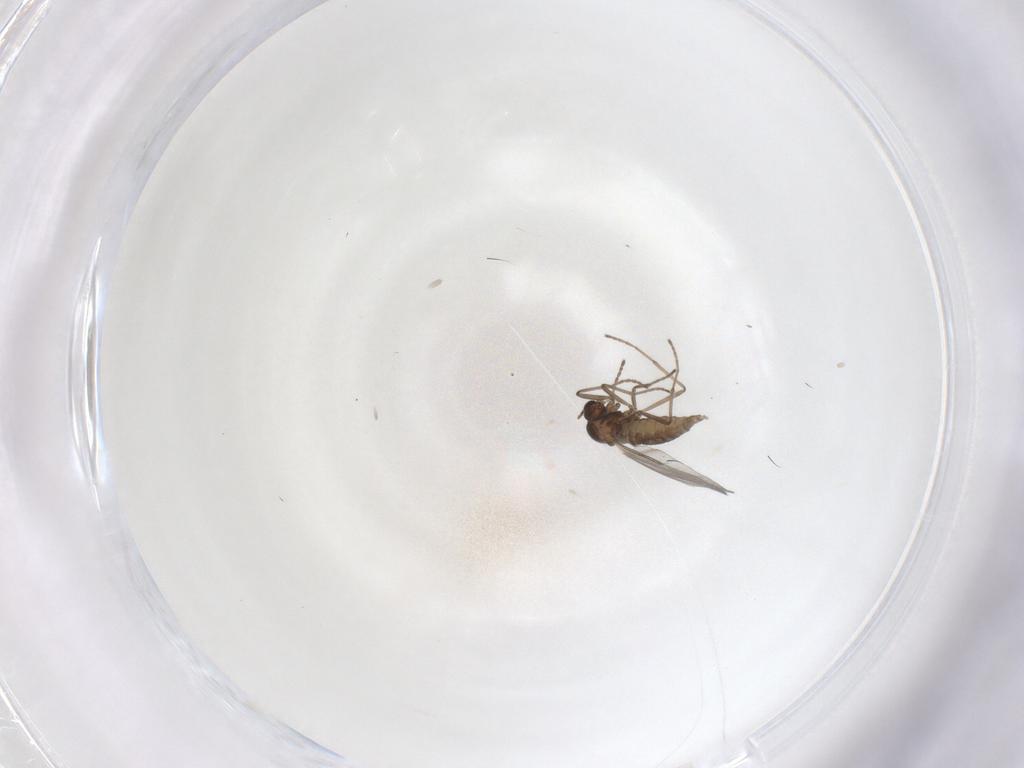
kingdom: Animalia
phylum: Arthropoda
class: Insecta
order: Diptera
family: Cecidomyiidae
